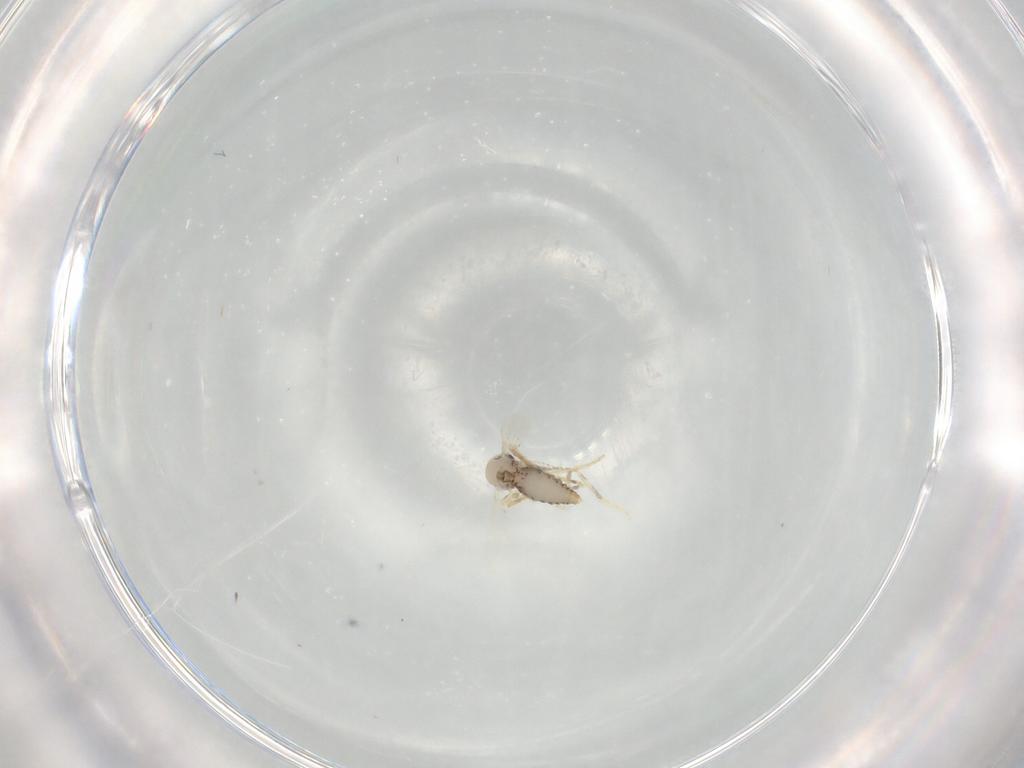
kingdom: Animalia
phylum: Arthropoda
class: Insecta
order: Diptera
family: Ceratopogonidae
